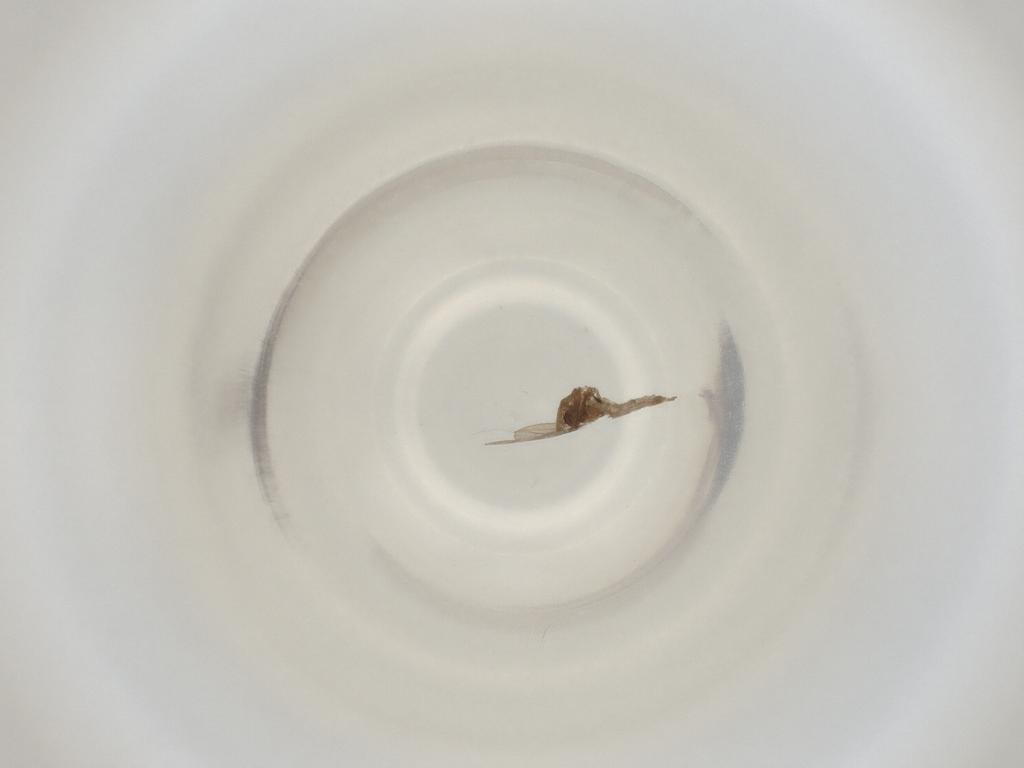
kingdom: Animalia
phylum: Arthropoda
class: Insecta
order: Diptera
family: Cecidomyiidae
